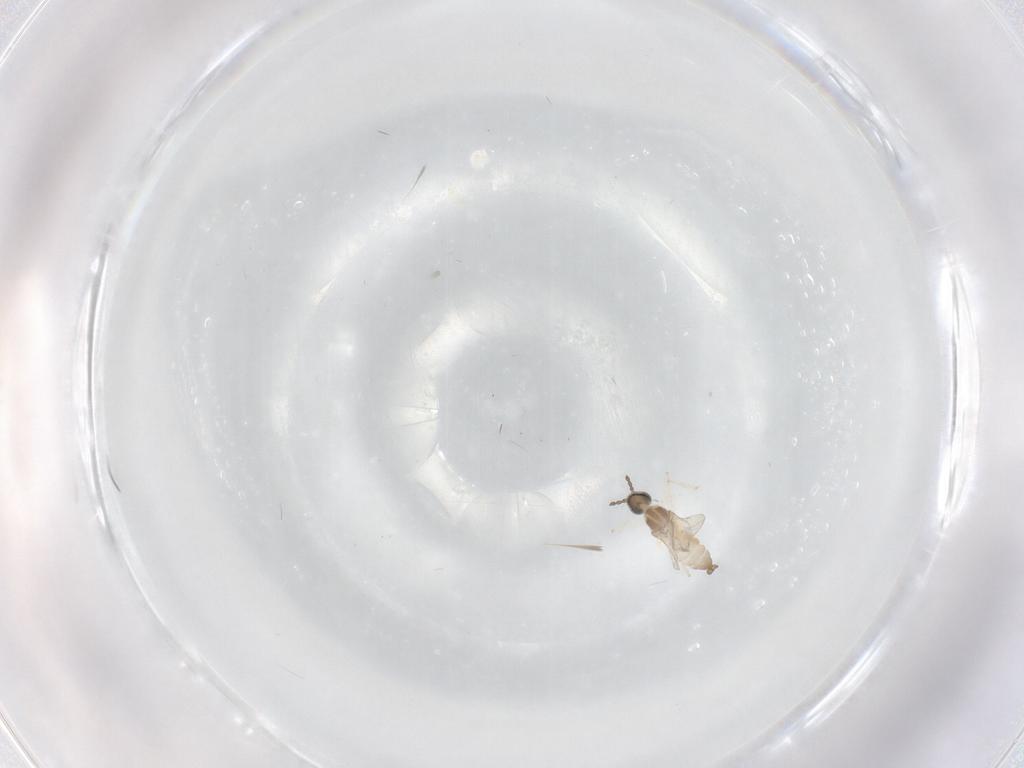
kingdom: Animalia
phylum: Arthropoda
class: Insecta
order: Diptera
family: Cecidomyiidae
